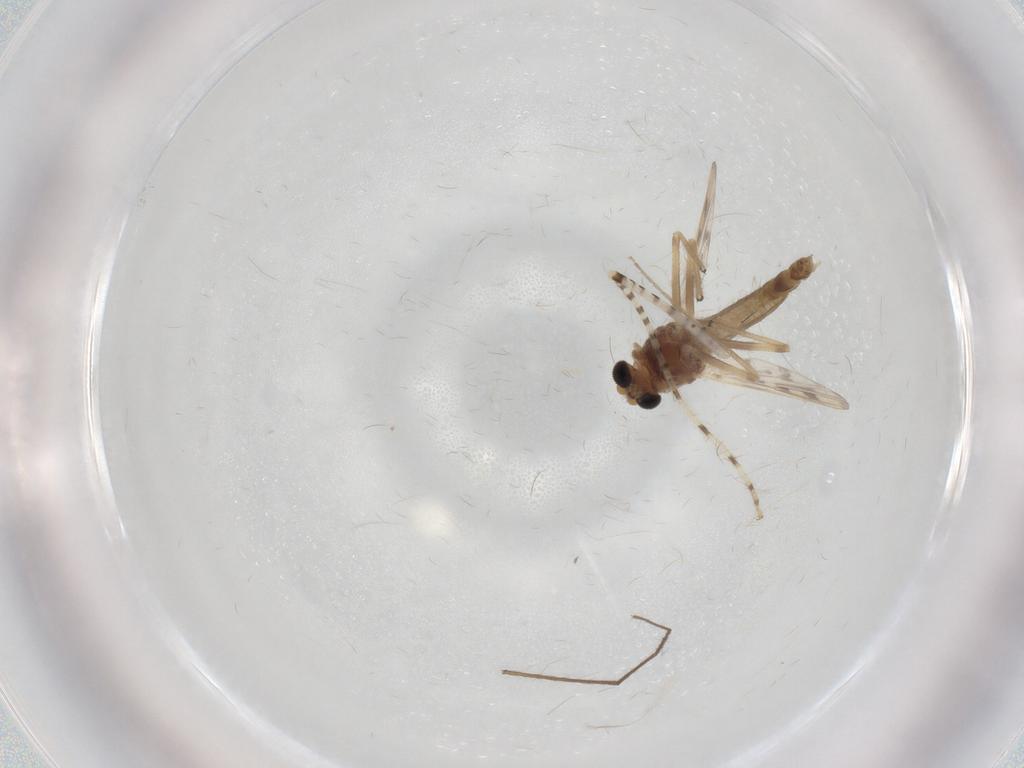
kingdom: Animalia
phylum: Arthropoda
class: Insecta
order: Diptera
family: Chironomidae
